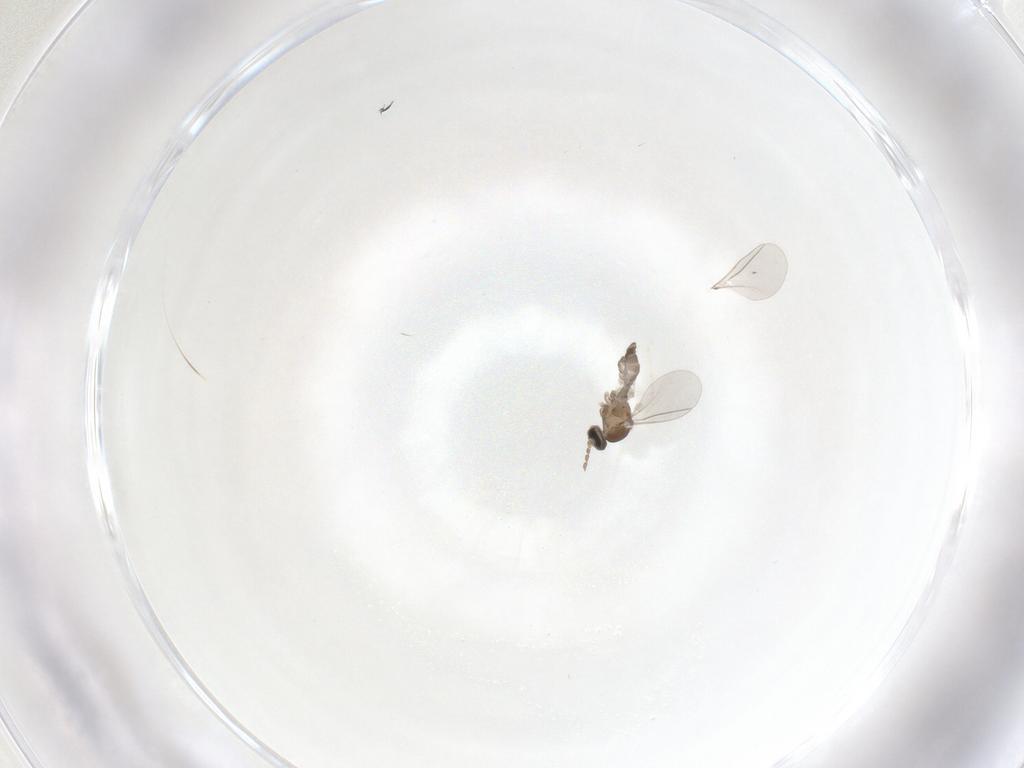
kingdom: Animalia
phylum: Arthropoda
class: Insecta
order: Diptera
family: Cecidomyiidae
